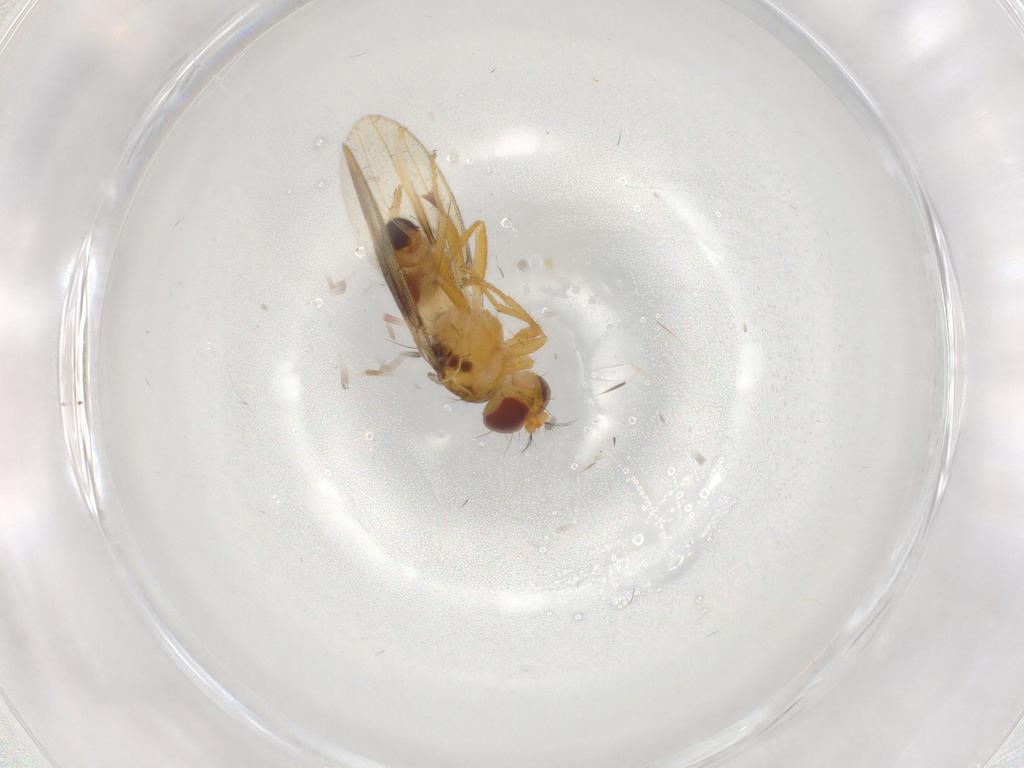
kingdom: Animalia
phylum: Arthropoda
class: Insecta
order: Diptera
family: Periscelididae
